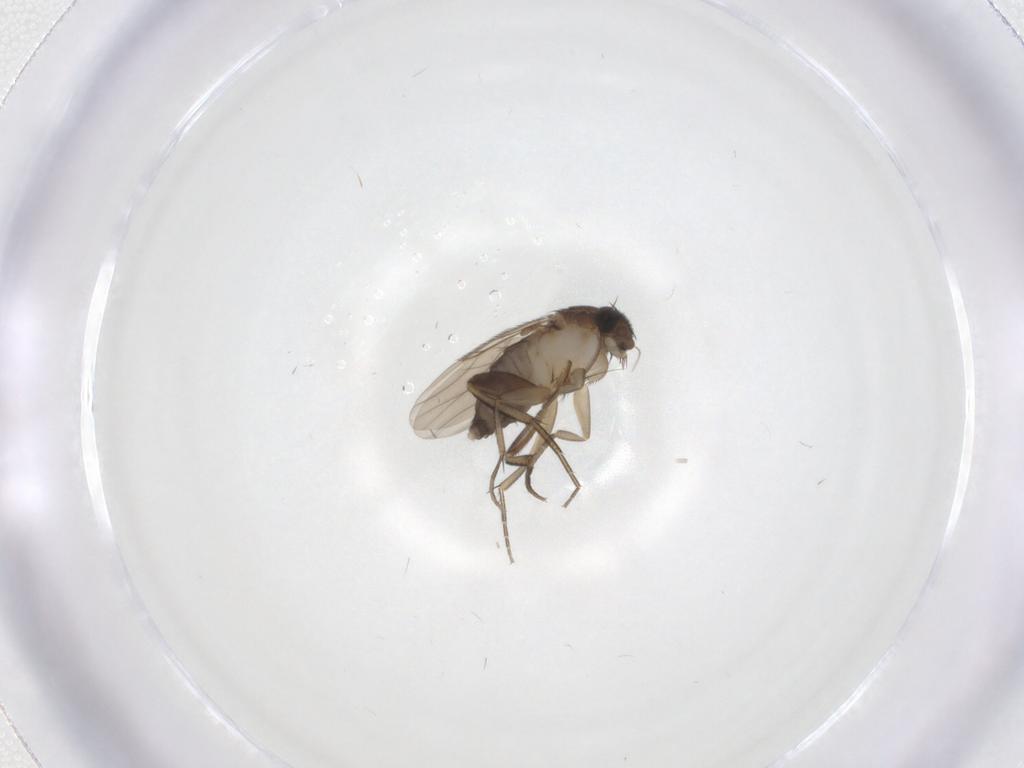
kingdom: Animalia
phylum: Arthropoda
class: Insecta
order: Diptera
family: Phoridae
